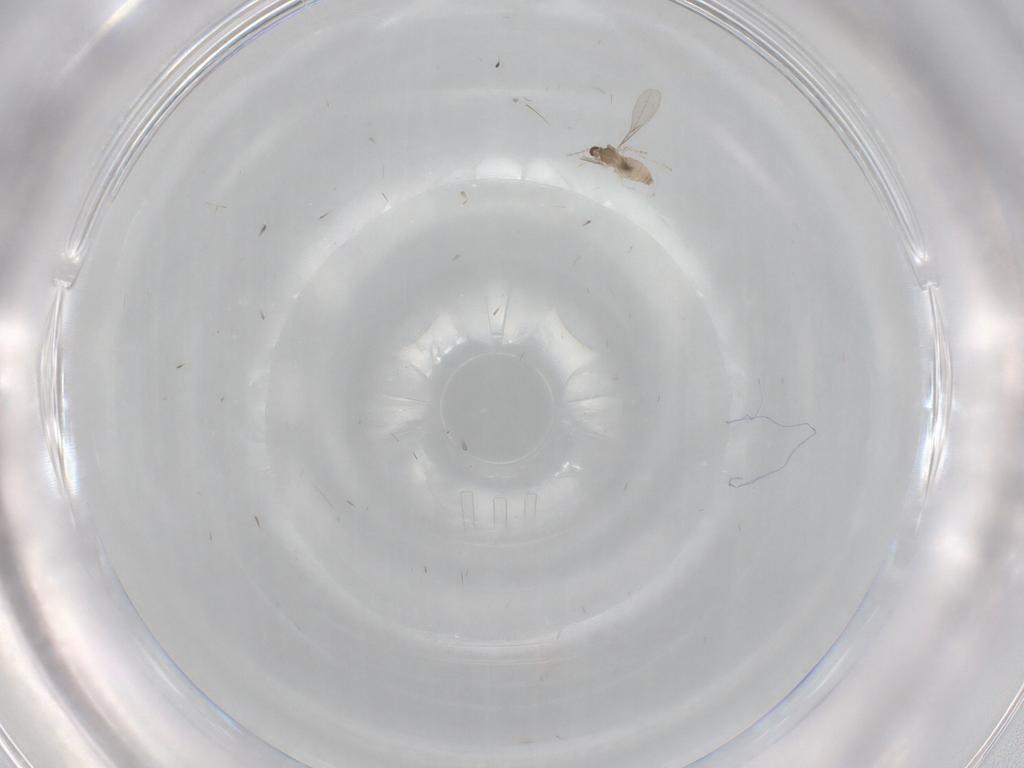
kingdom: Animalia
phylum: Arthropoda
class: Insecta
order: Diptera
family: Cecidomyiidae
